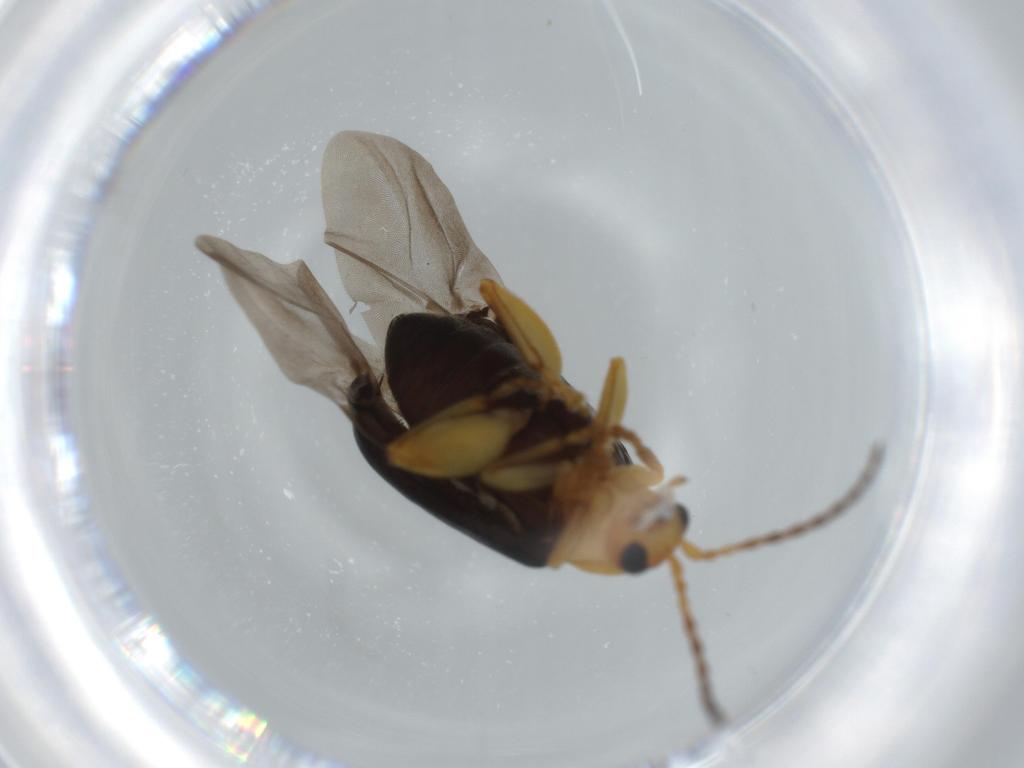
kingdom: Animalia
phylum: Arthropoda
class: Insecta
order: Coleoptera
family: Chrysomelidae
